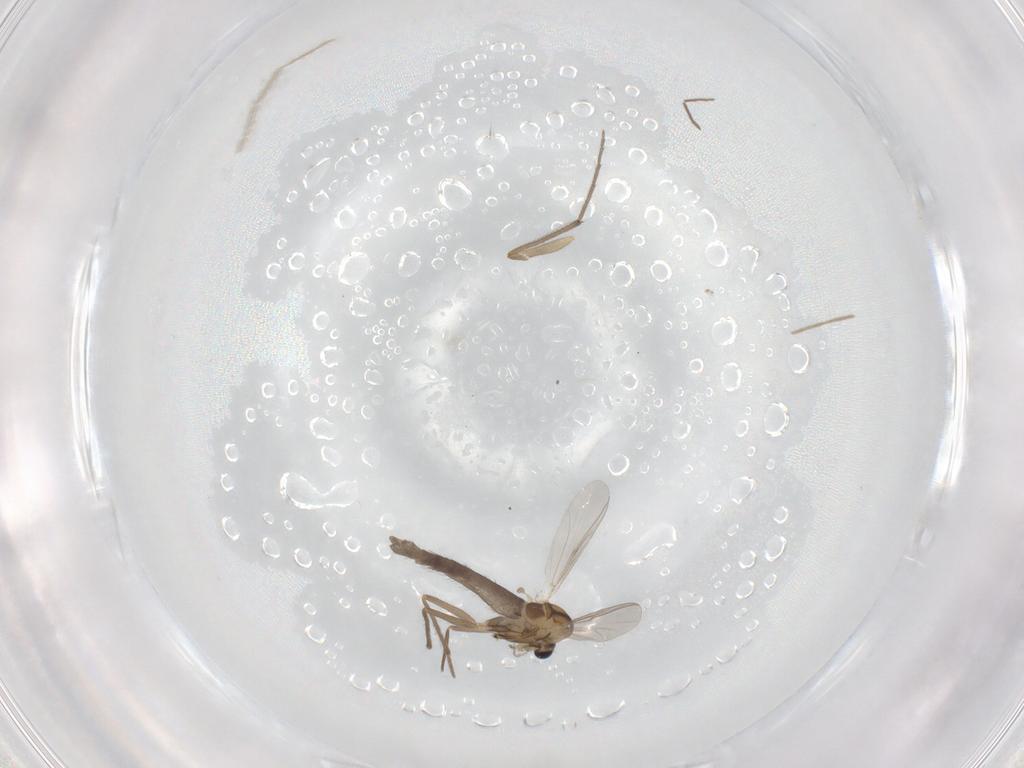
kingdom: Animalia
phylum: Arthropoda
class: Insecta
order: Diptera
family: Chironomidae
